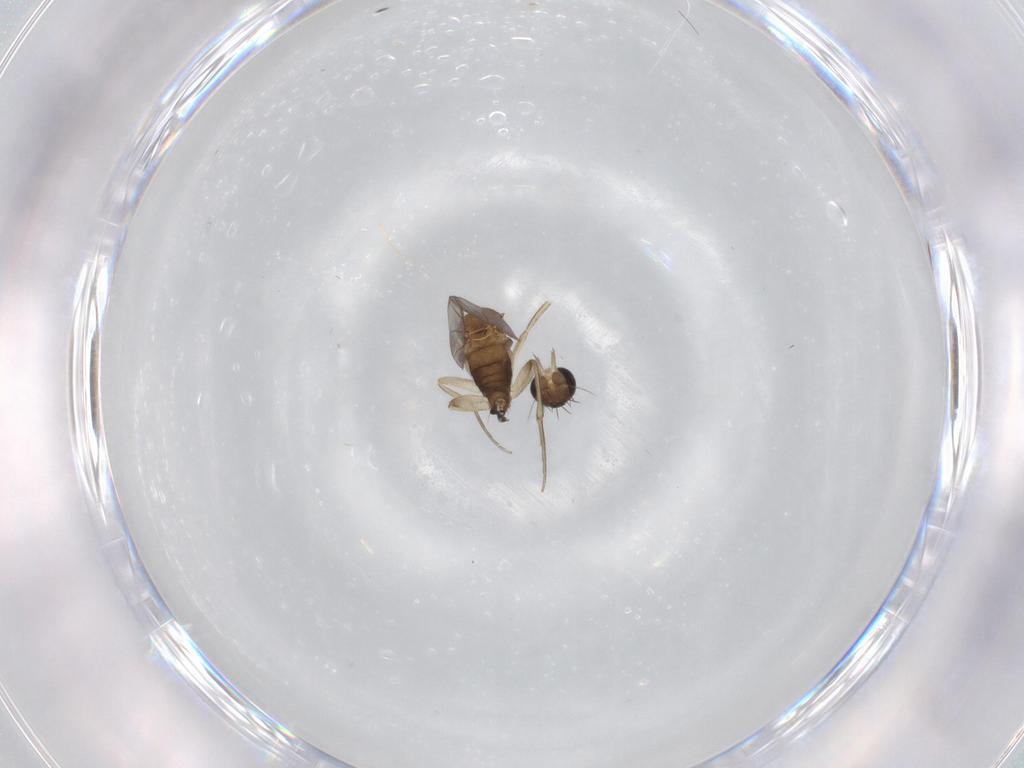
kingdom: Animalia
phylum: Arthropoda
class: Insecta
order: Diptera
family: Phoridae
